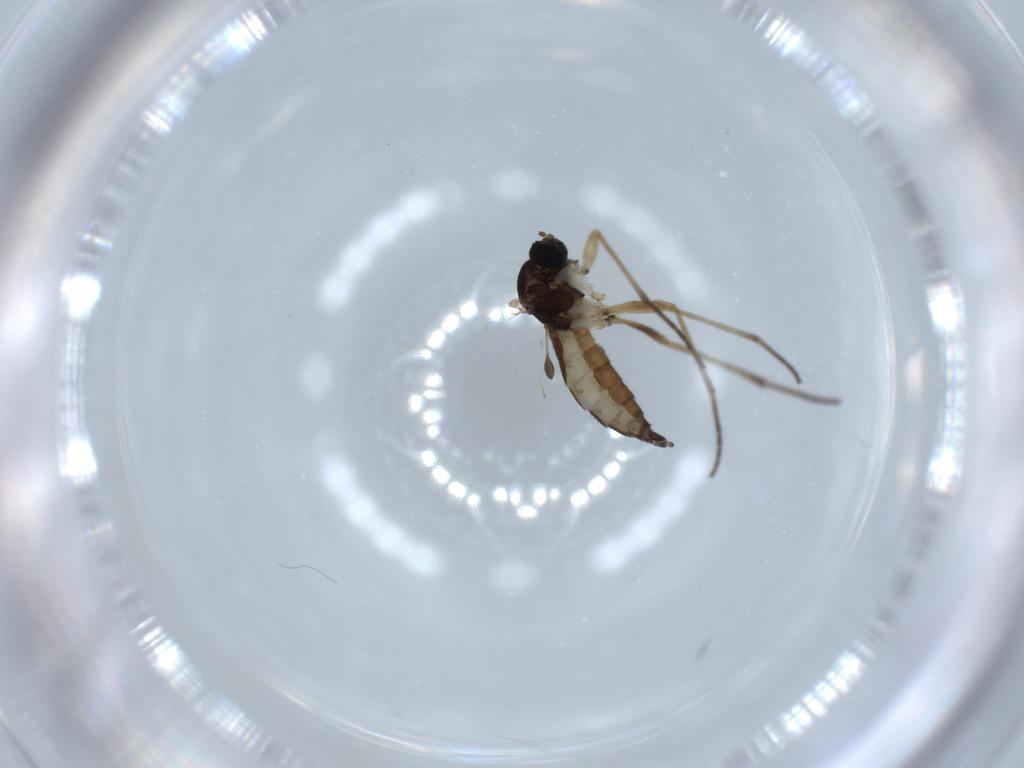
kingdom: Animalia
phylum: Arthropoda
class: Insecta
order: Diptera
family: Sciaridae
